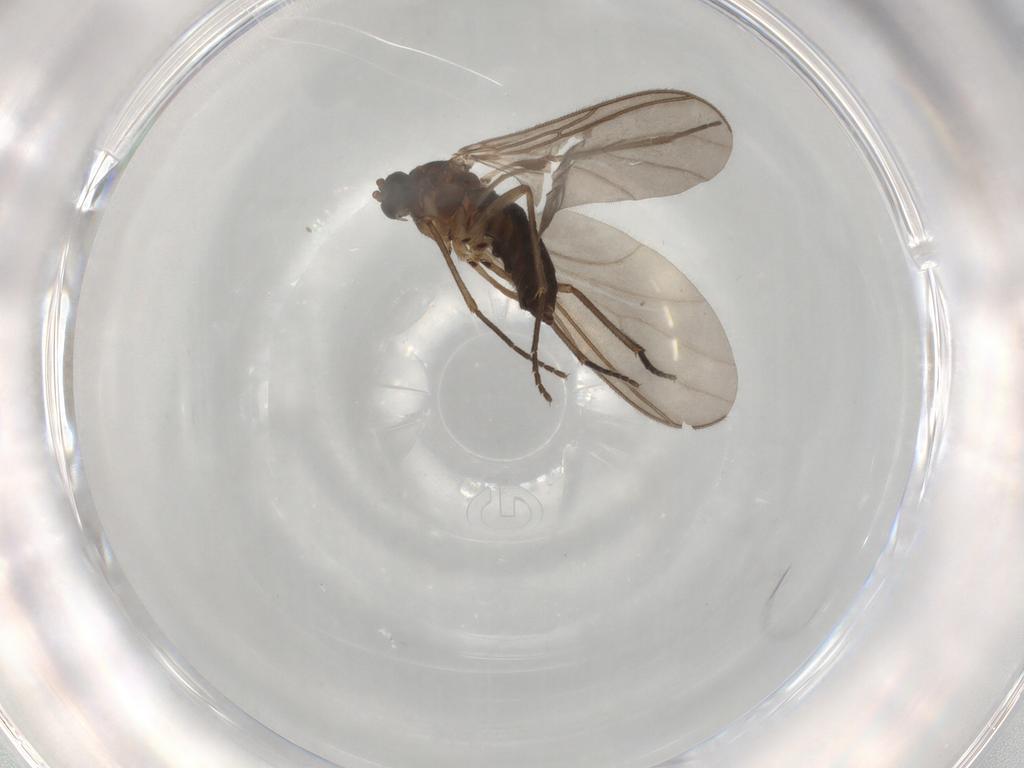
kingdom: Animalia
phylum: Arthropoda
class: Insecta
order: Diptera
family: Sciaridae
